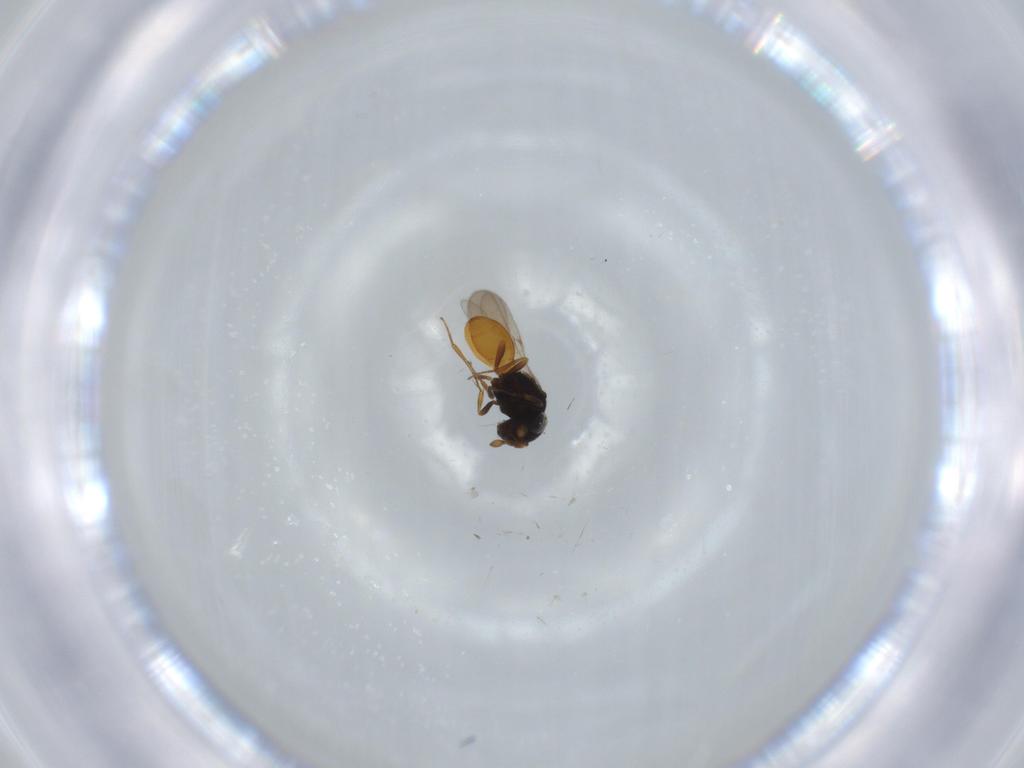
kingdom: Animalia
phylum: Arthropoda
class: Insecta
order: Hymenoptera
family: Scelionidae
